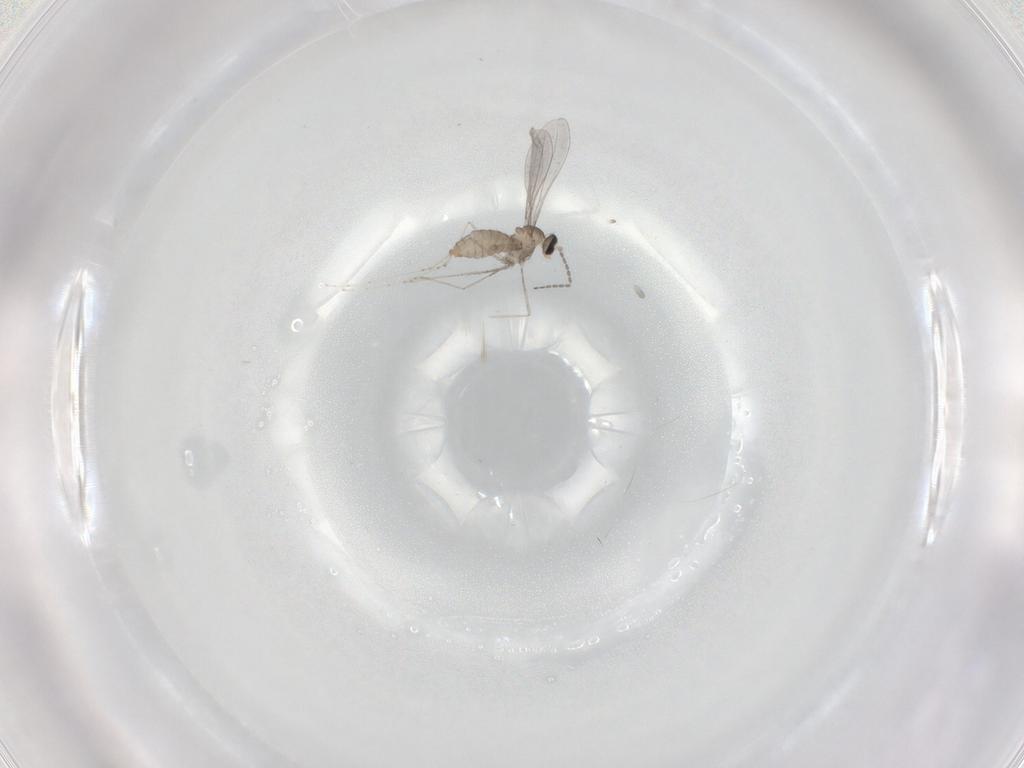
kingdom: Animalia
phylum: Arthropoda
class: Insecta
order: Diptera
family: Cecidomyiidae
